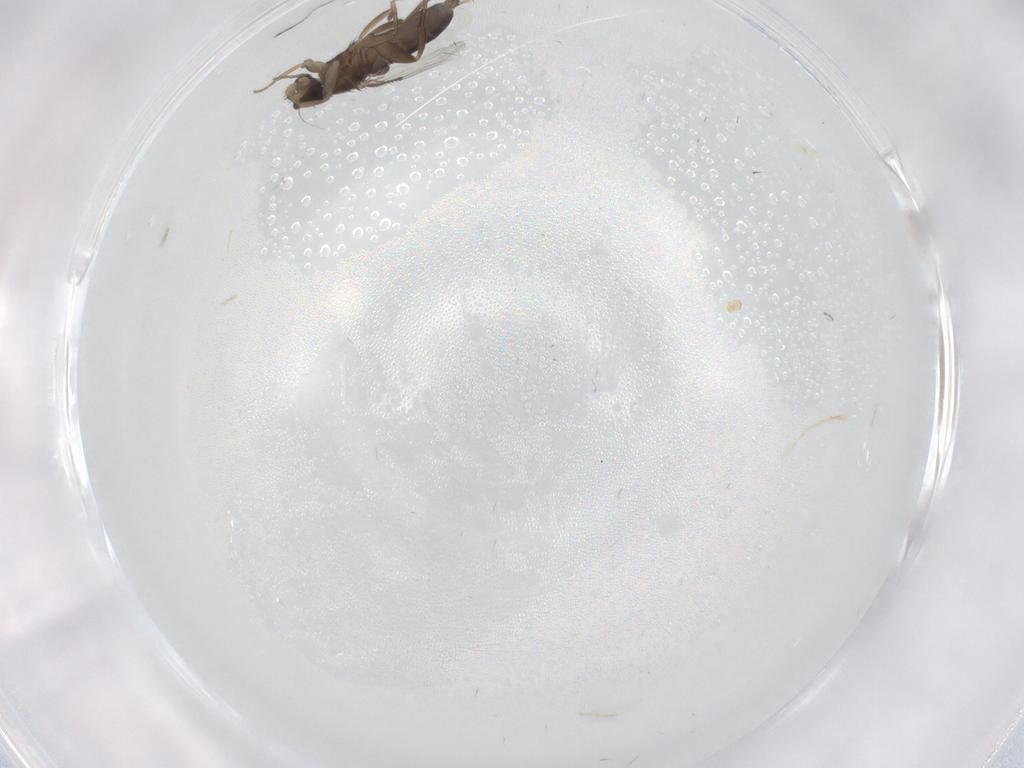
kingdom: Animalia
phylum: Arthropoda
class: Insecta
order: Diptera
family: Phoridae
